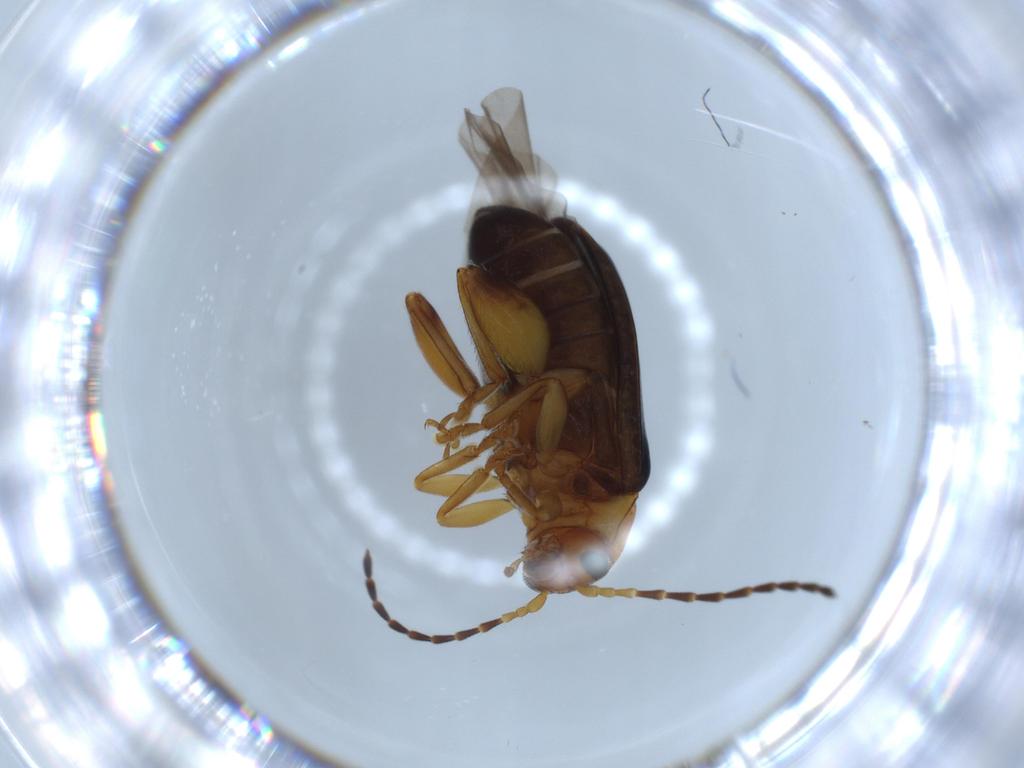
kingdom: Animalia
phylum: Arthropoda
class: Insecta
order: Coleoptera
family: Chrysomelidae
